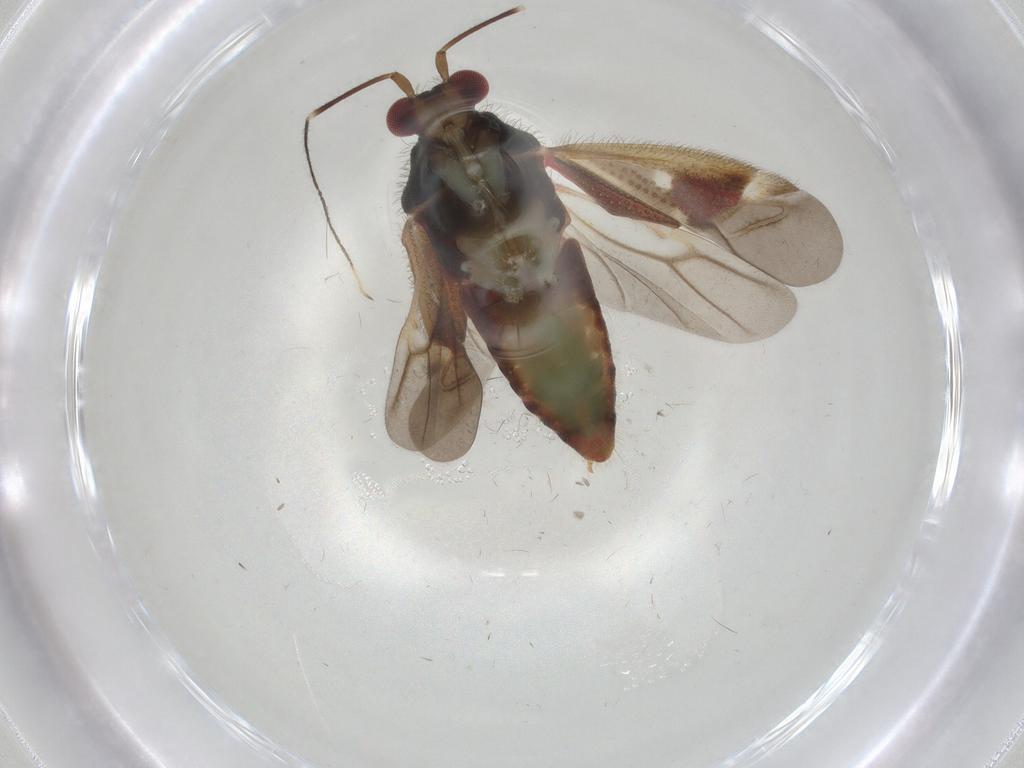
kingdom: Animalia
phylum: Arthropoda
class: Insecta
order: Hemiptera
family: Miridae
